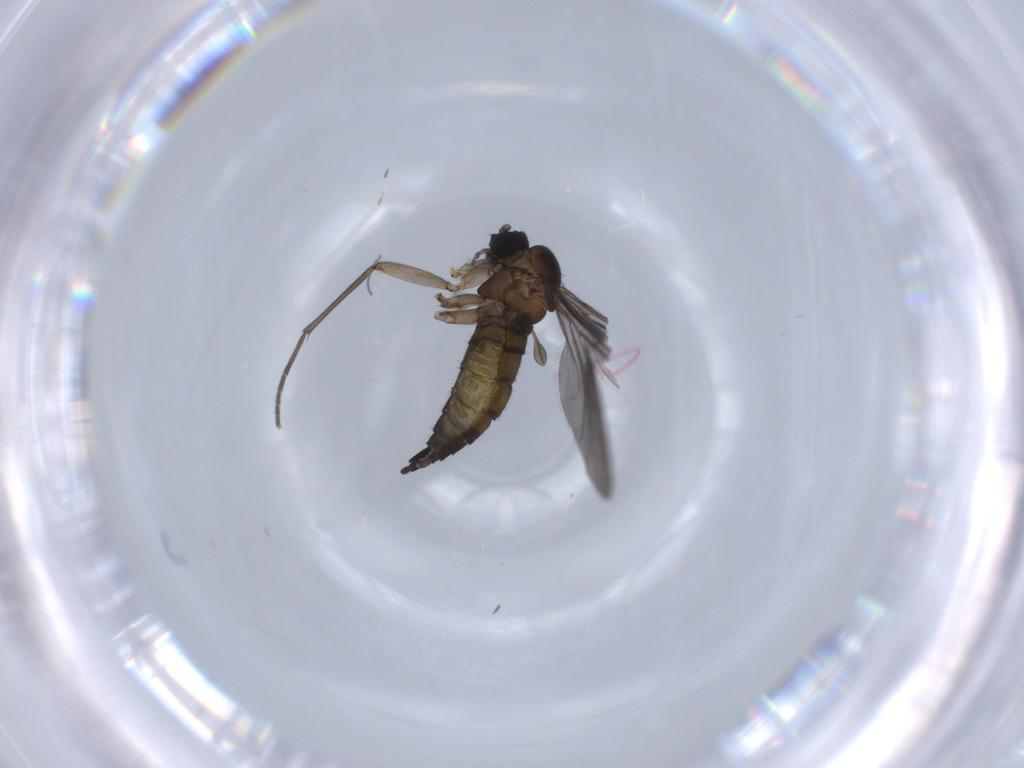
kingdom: Animalia
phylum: Arthropoda
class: Insecta
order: Diptera
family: Sciaridae
